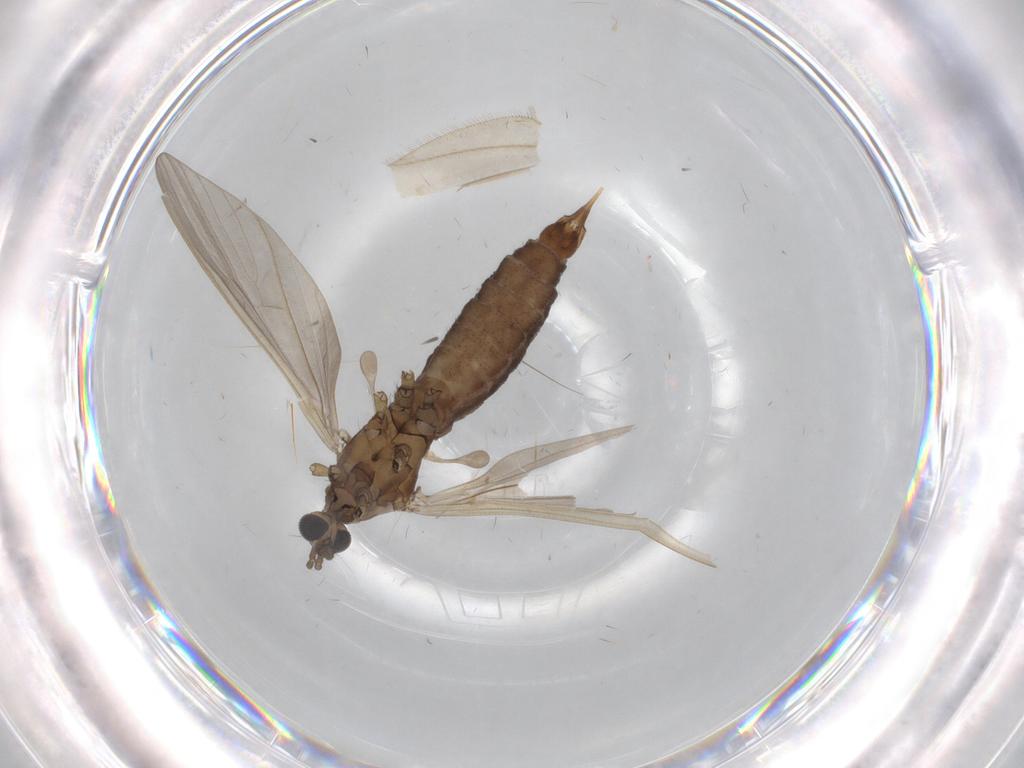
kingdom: Animalia
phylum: Arthropoda
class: Insecta
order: Diptera
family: Limoniidae
